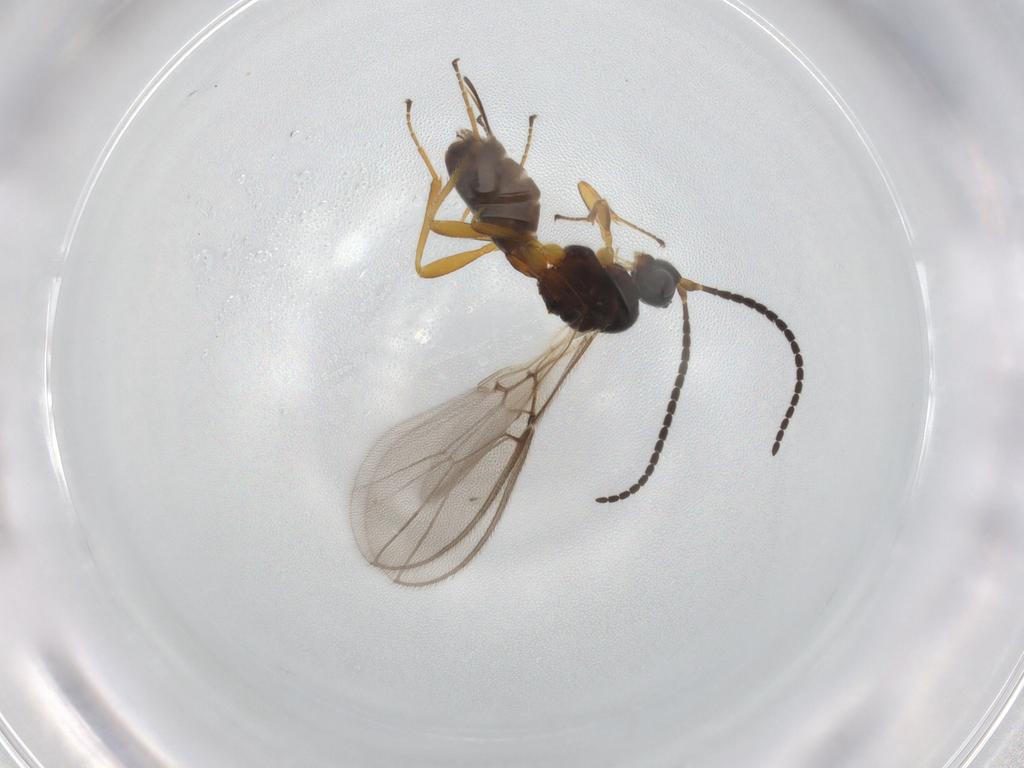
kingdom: Animalia
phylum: Arthropoda
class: Insecta
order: Hymenoptera
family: Braconidae
